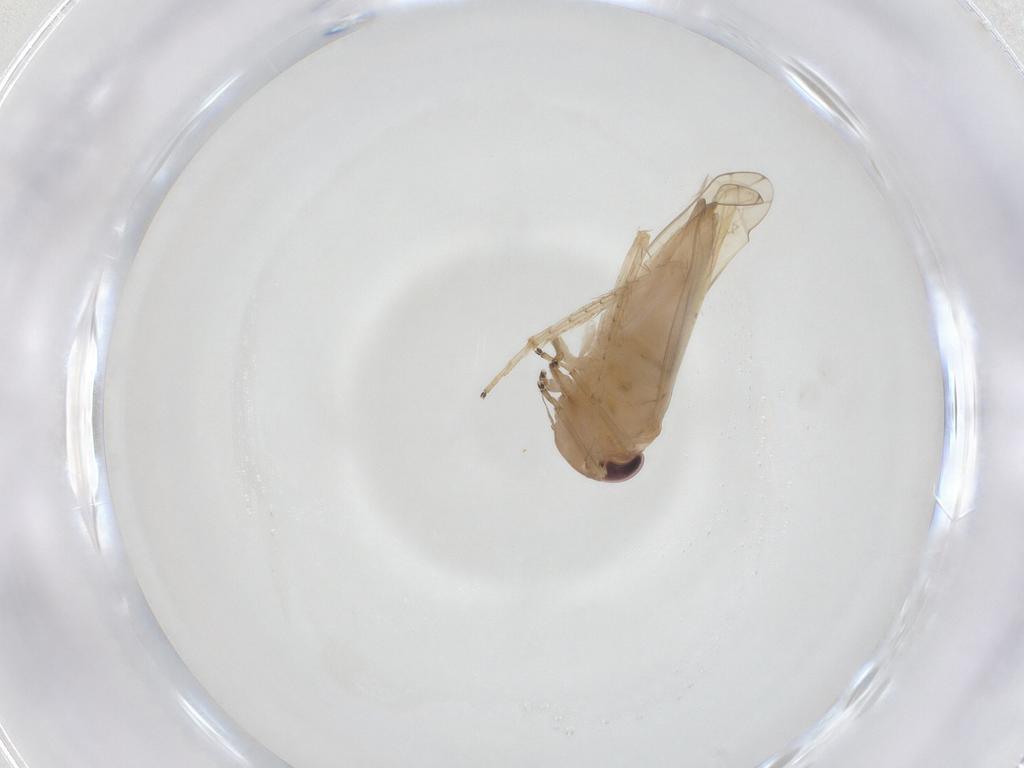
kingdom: Animalia
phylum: Arthropoda
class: Insecta
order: Hemiptera
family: Cicadellidae
